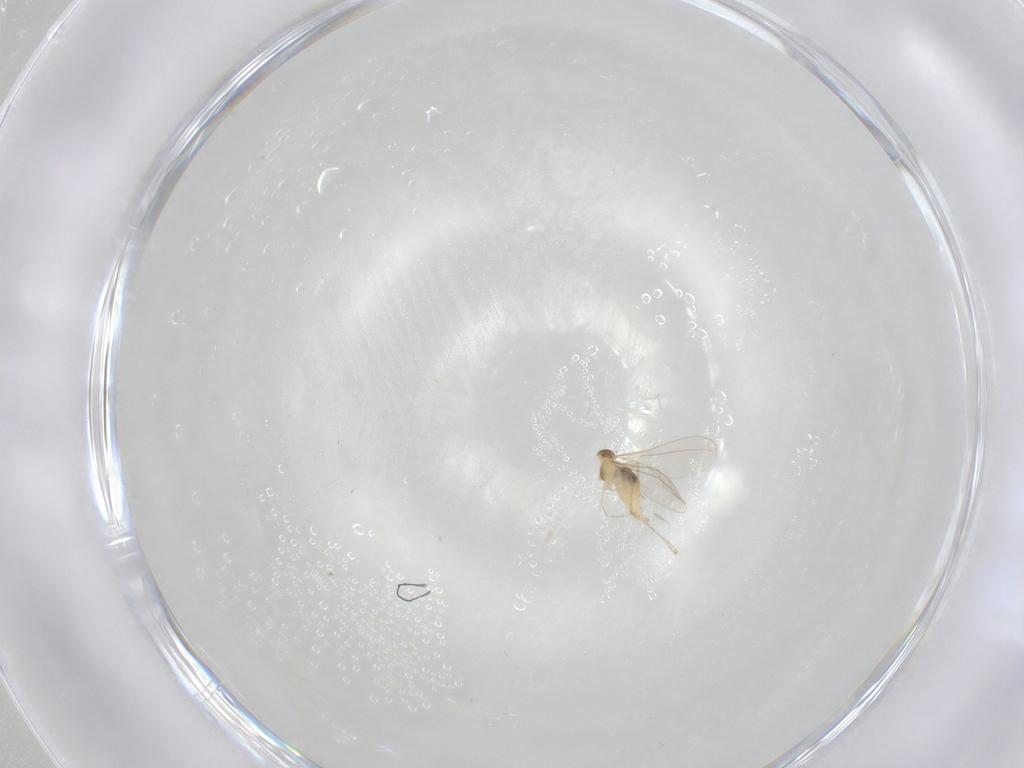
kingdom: Animalia
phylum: Arthropoda
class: Insecta
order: Diptera
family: Cecidomyiidae
